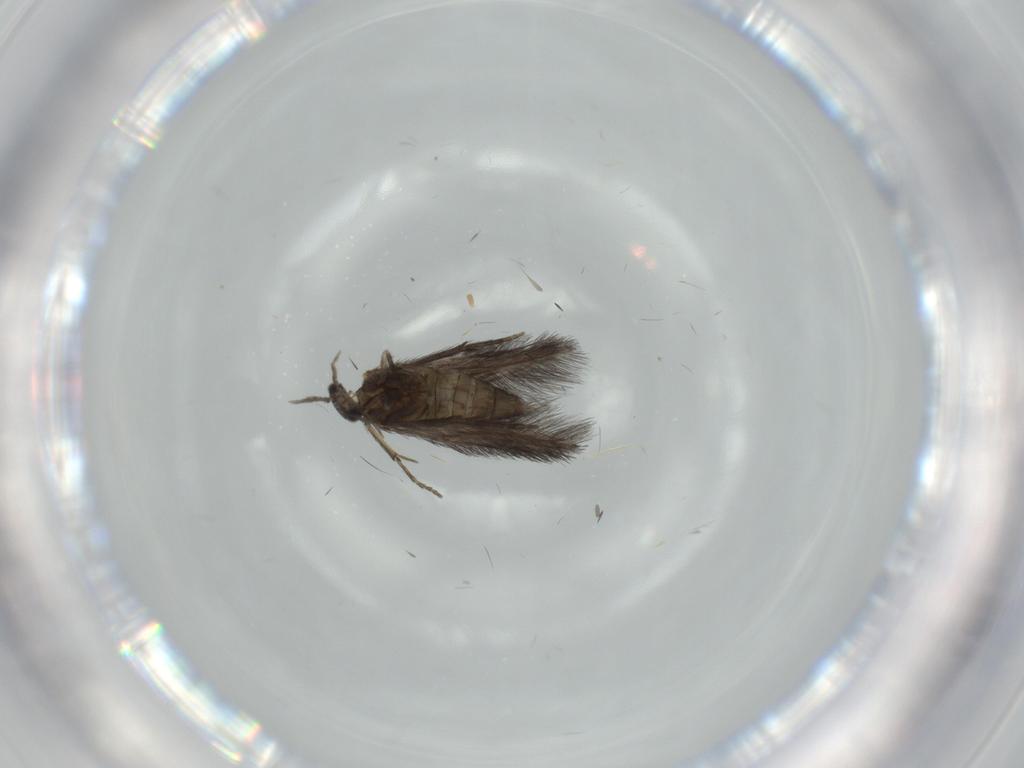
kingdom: Animalia
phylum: Arthropoda
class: Insecta
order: Trichoptera
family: Hydroptilidae
